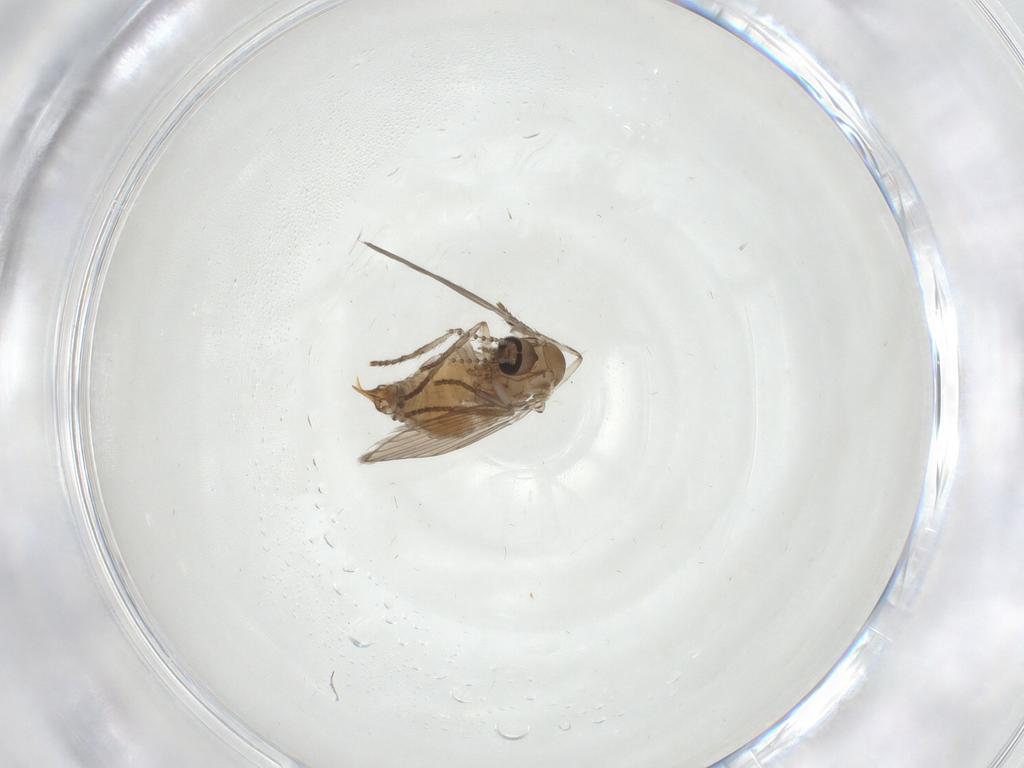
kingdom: Animalia
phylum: Arthropoda
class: Insecta
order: Diptera
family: Psychodidae
